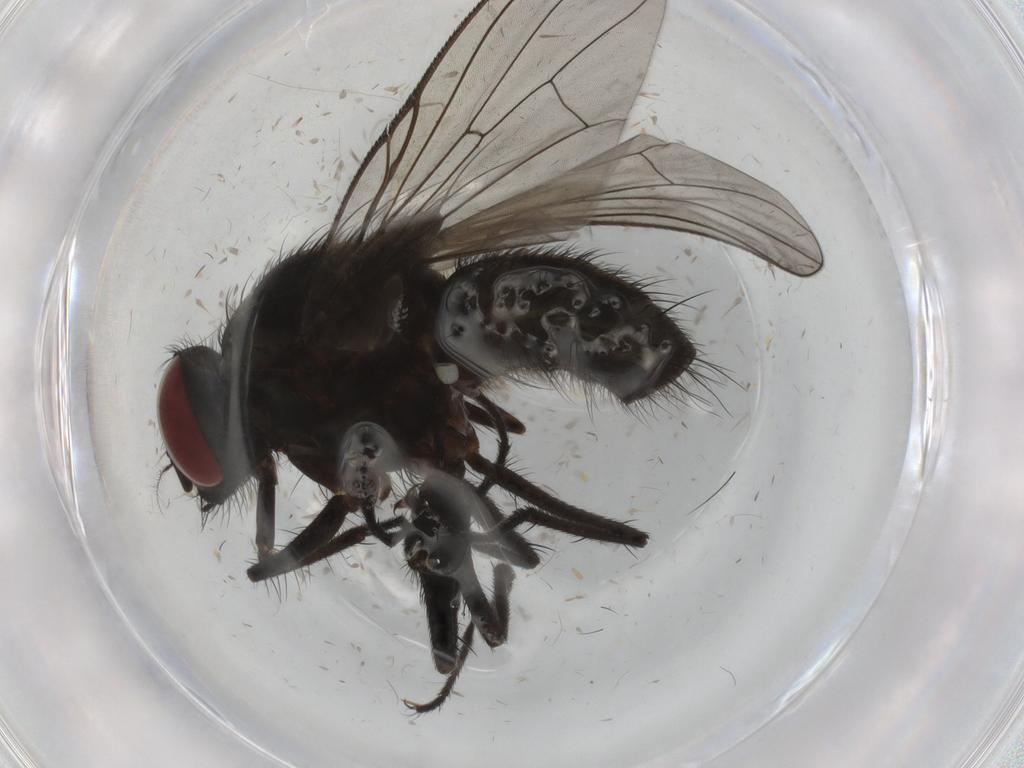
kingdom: Animalia
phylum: Arthropoda
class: Insecta
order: Diptera
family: Muscidae
